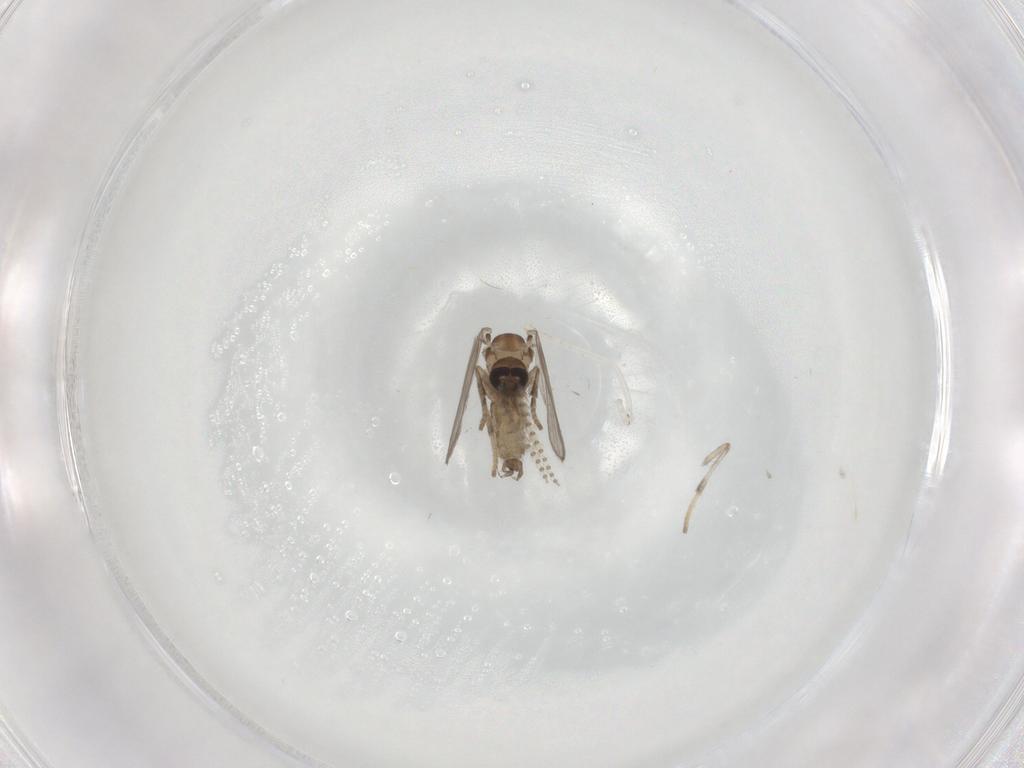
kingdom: Animalia
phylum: Arthropoda
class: Insecta
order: Diptera
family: Psychodidae
